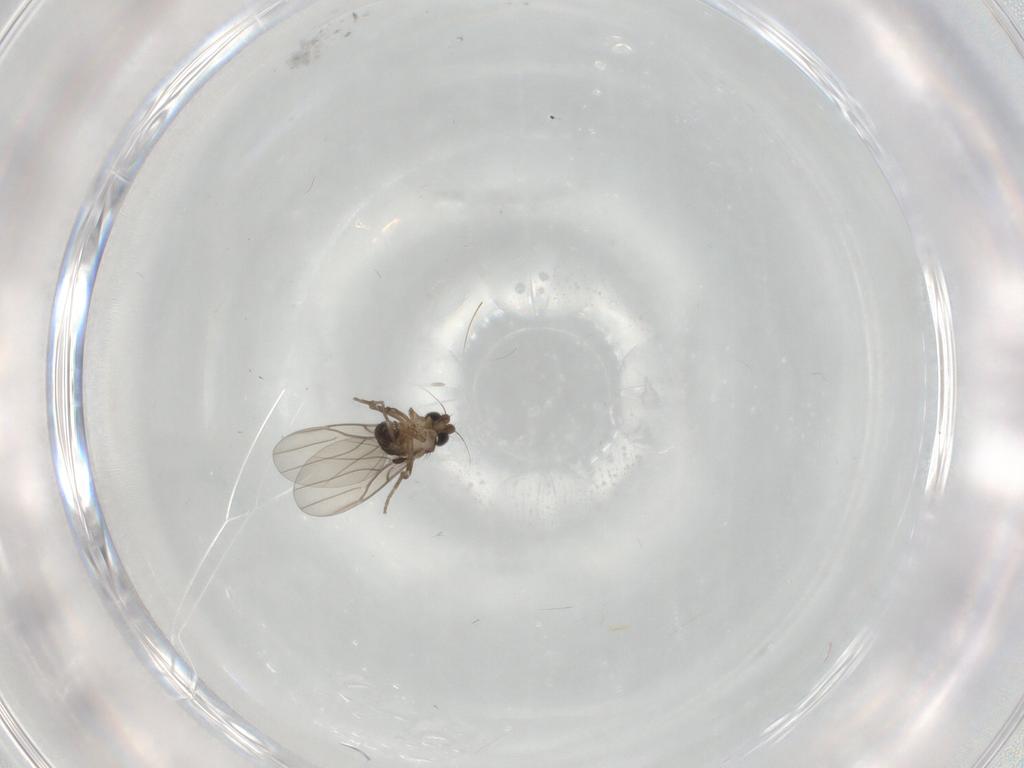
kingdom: Animalia
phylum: Arthropoda
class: Insecta
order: Diptera
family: Phoridae
